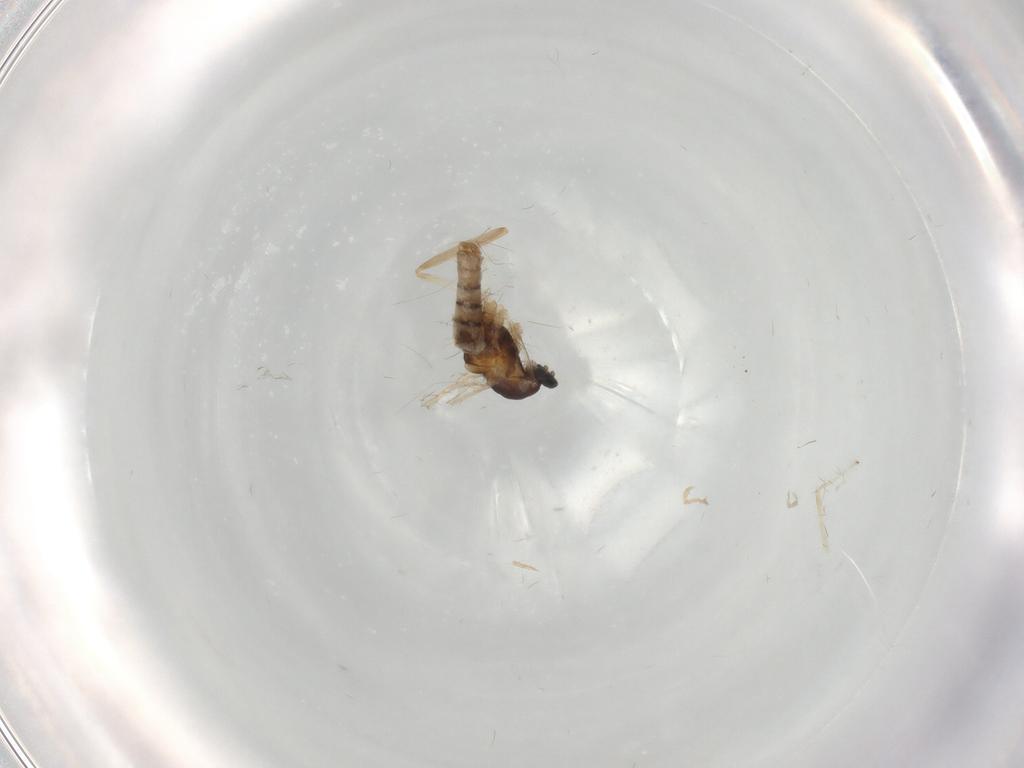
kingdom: Animalia
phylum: Arthropoda
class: Insecta
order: Diptera
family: Cecidomyiidae
